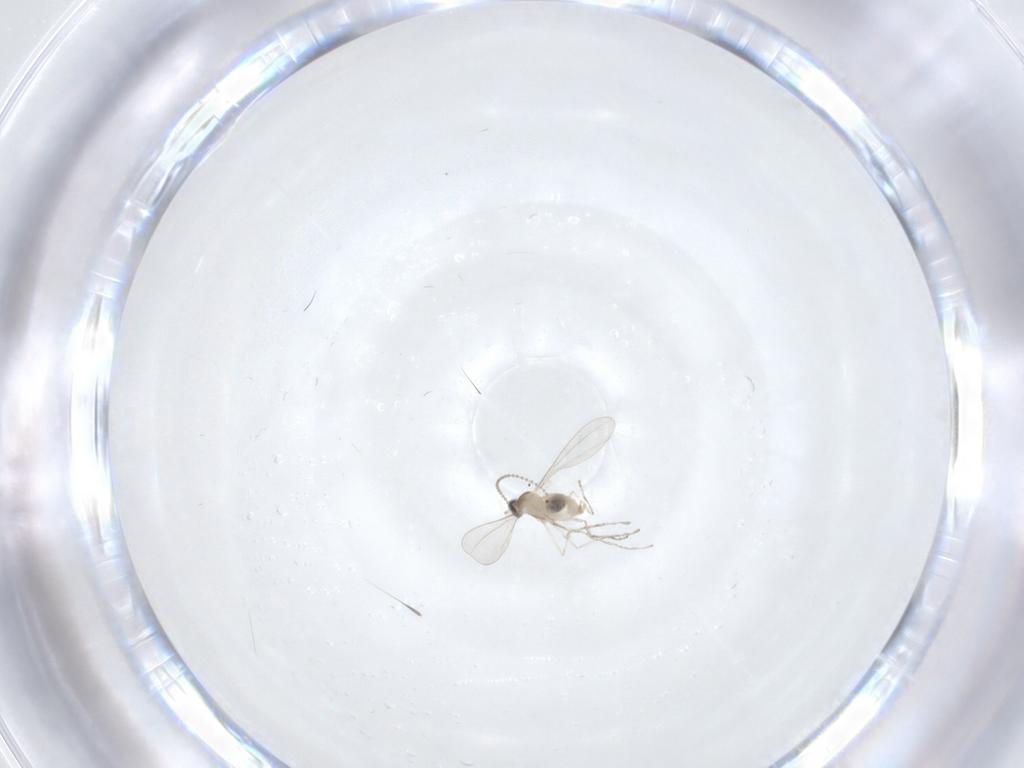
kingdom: Animalia
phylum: Arthropoda
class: Insecta
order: Diptera
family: Cecidomyiidae
